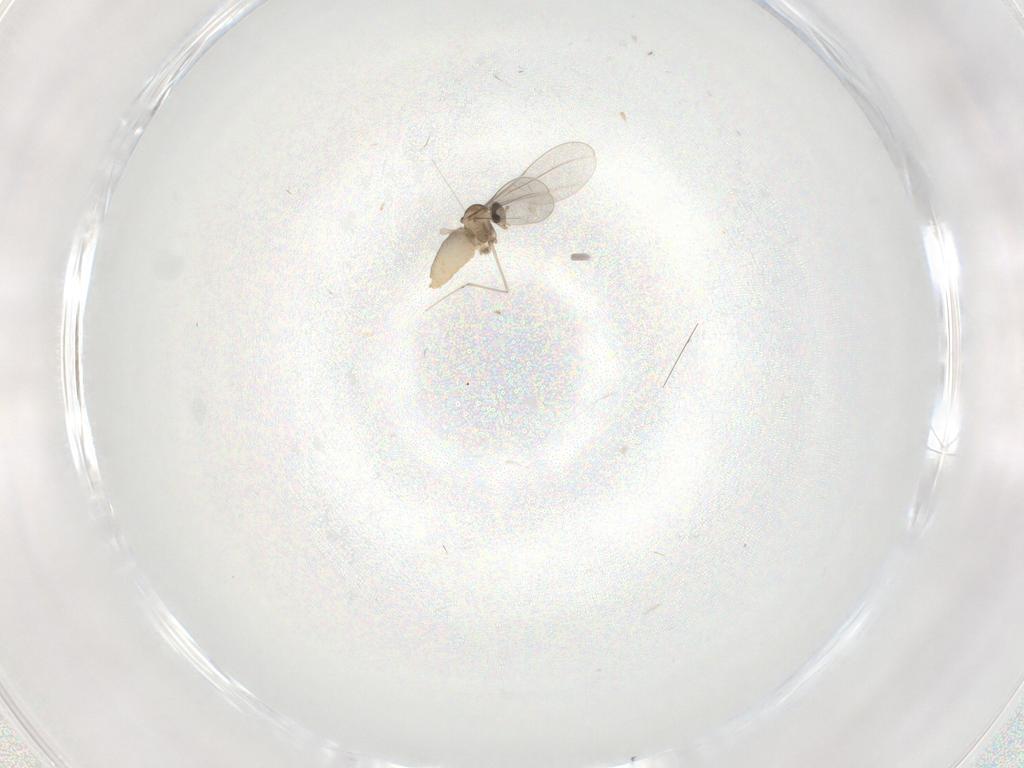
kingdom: Animalia
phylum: Arthropoda
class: Insecta
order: Diptera
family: Cecidomyiidae
